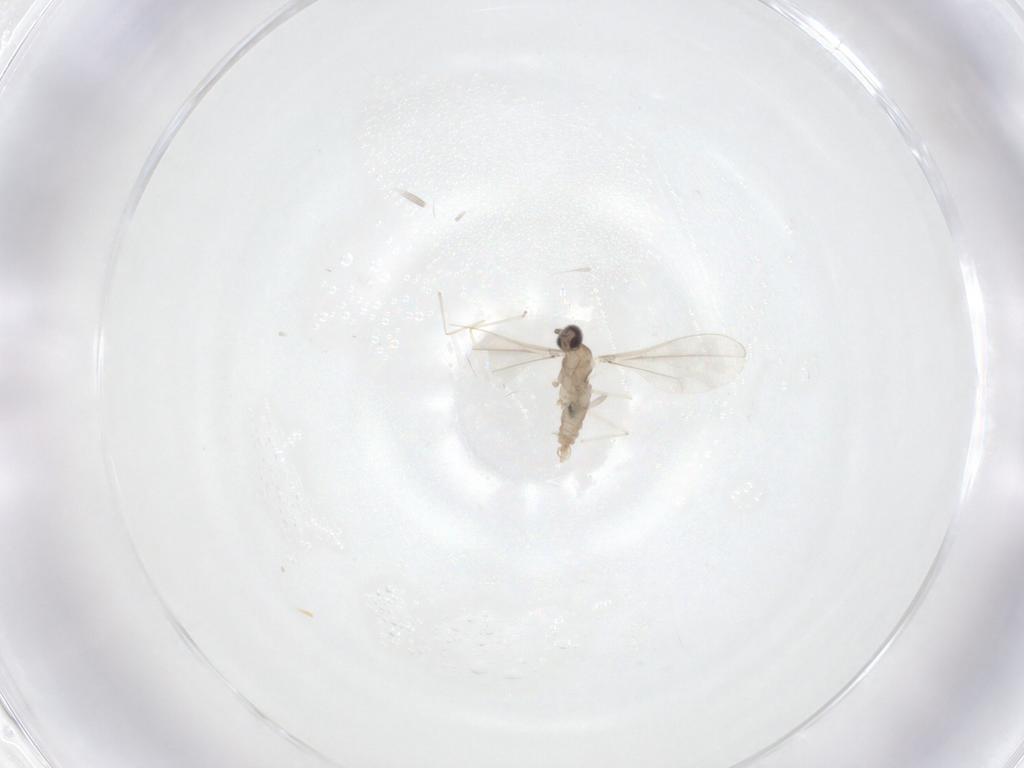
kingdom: Animalia
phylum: Arthropoda
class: Insecta
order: Diptera
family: Cecidomyiidae
